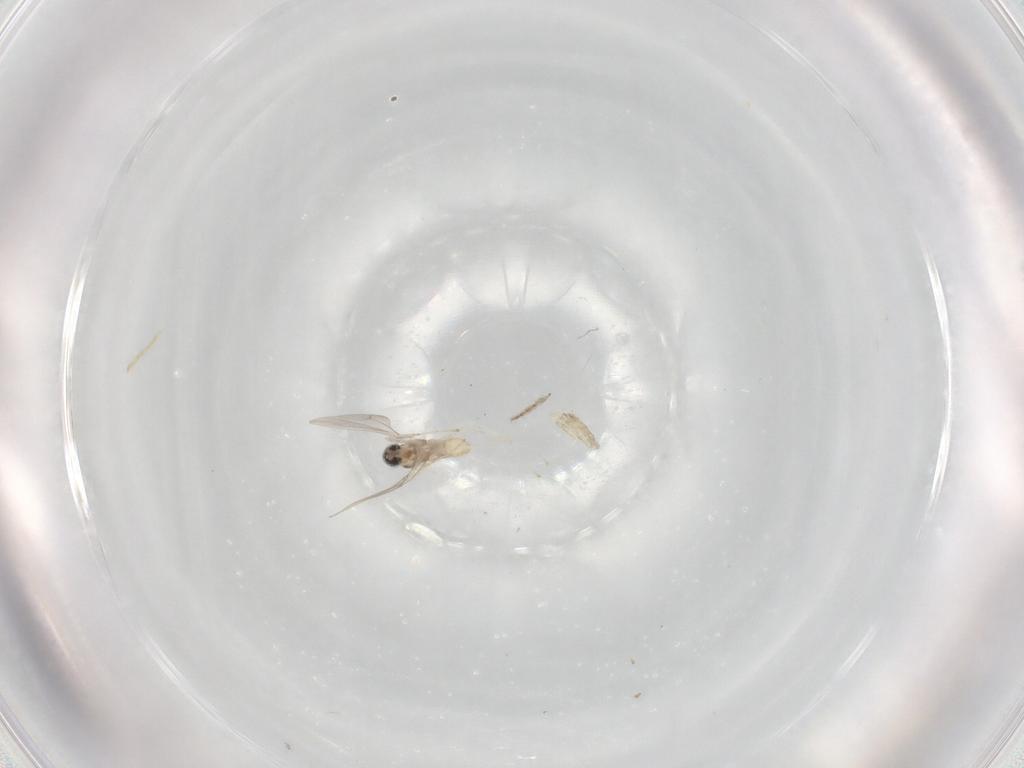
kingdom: Animalia
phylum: Arthropoda
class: Insecta
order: Diptera
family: Cecidomyiidae
